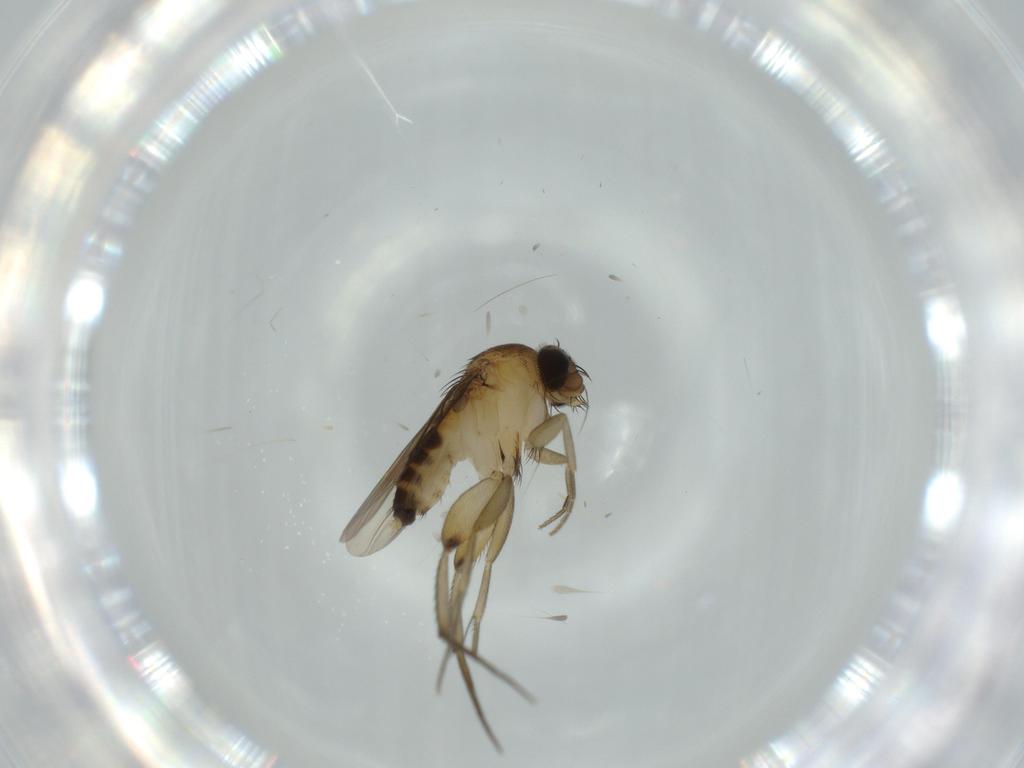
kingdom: Animalia
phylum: Arthropoda
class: Insecta
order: Diptera
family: Phoridae
